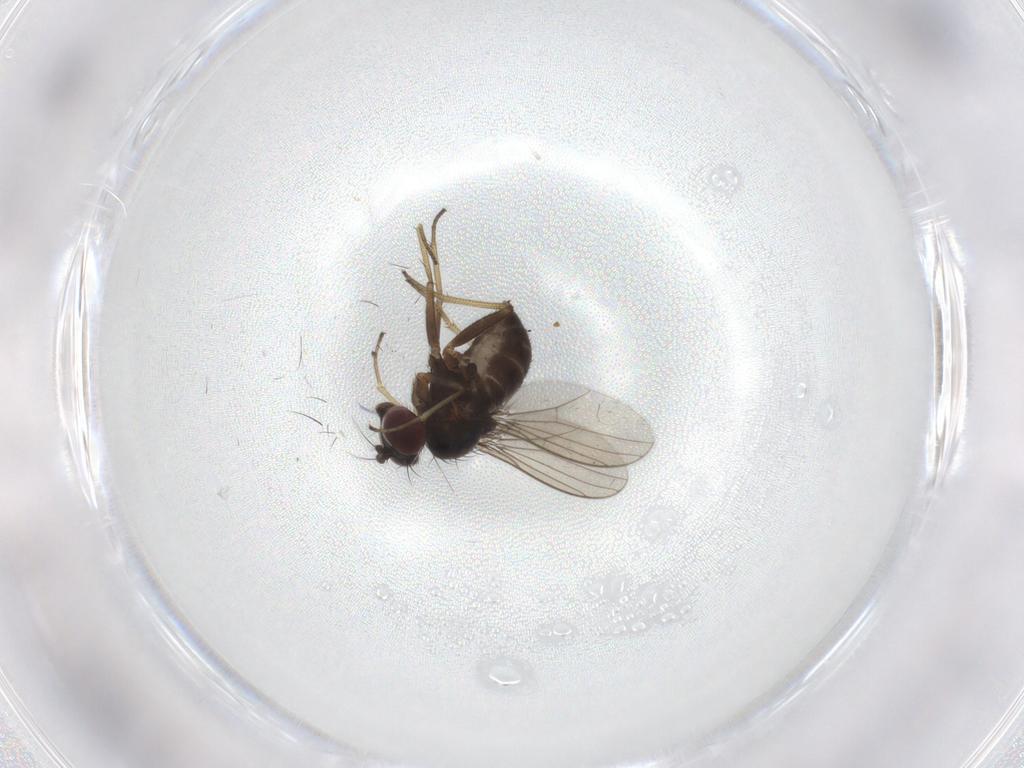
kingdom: Animalia
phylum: Arthropoda
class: Insecta
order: Diptera
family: Dolichopodidae
